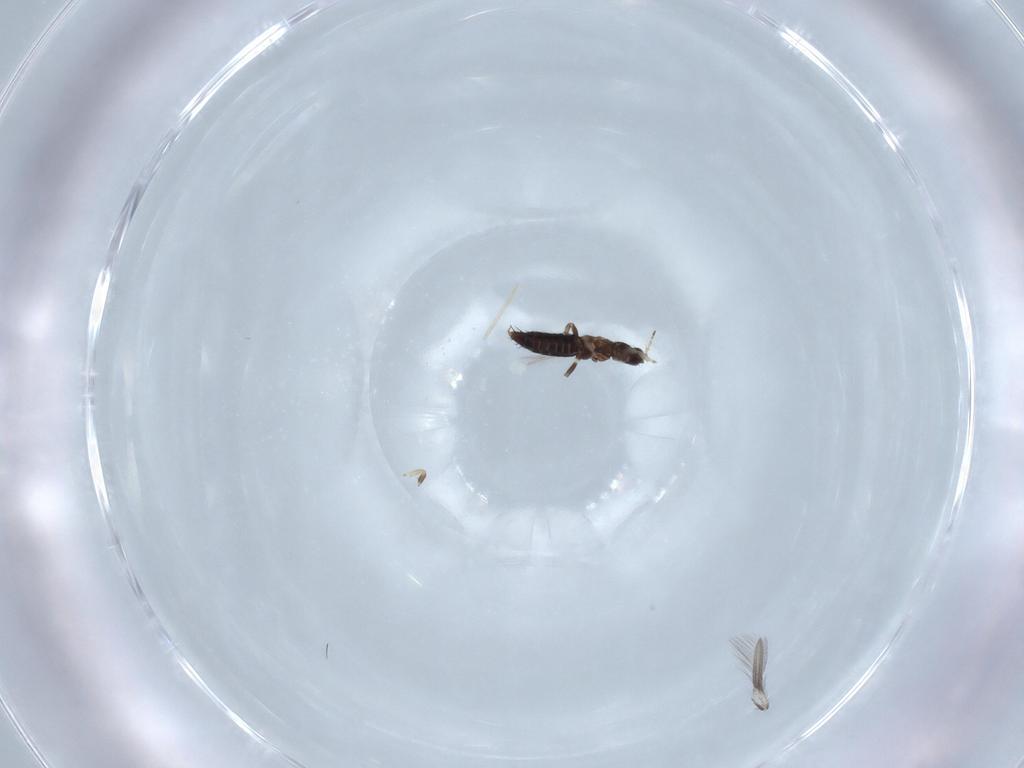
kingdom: Animalia
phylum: Arthropoda
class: Insecta
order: Thysanoptera
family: Thripidae
